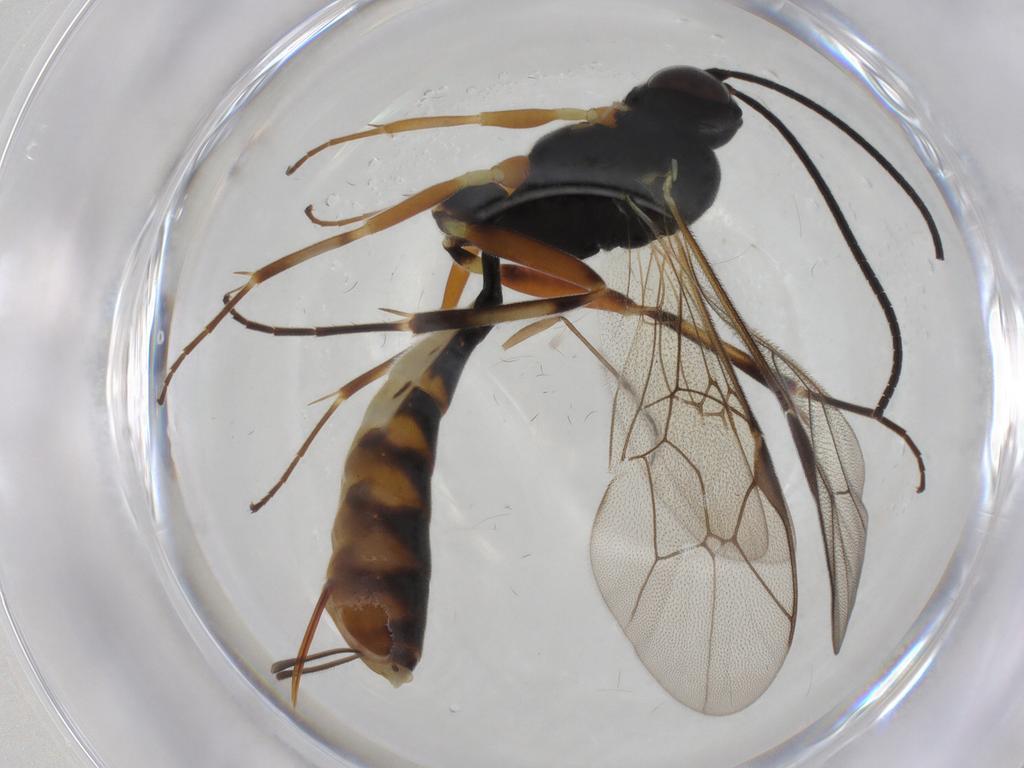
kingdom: Animalia
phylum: Arthropoda
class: Insecta
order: Hymenoptera
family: Ichneumonidae
